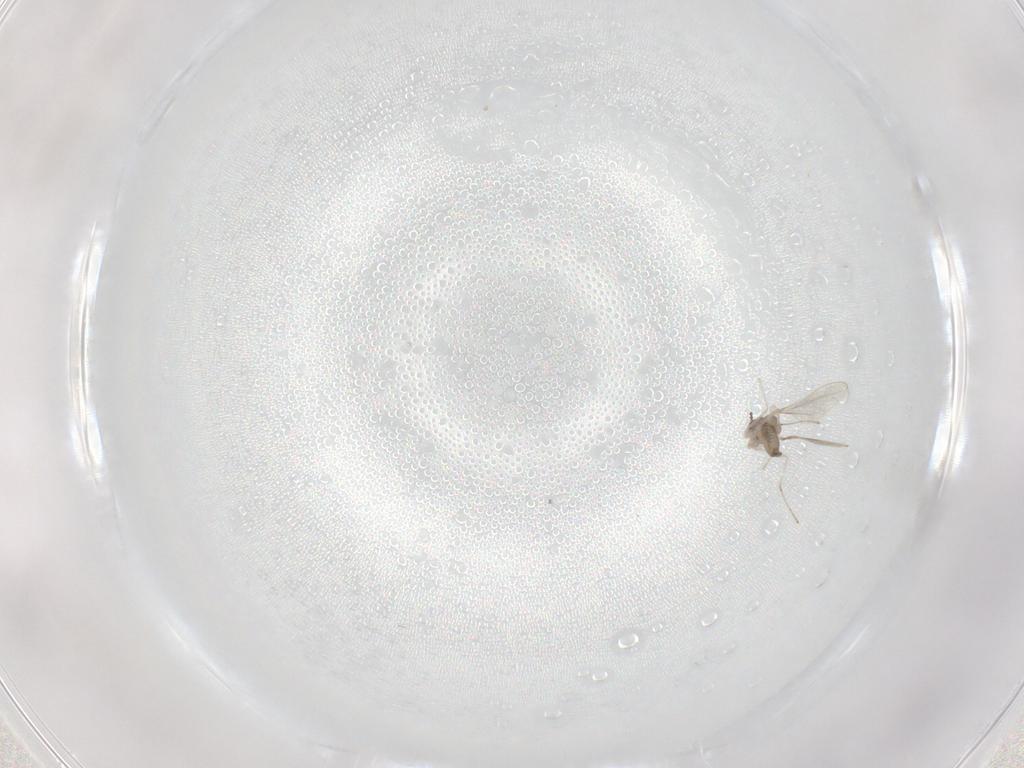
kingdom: Animalia
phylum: Arthropoda
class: Insecta
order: Diptera
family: Cecidomyiidae
